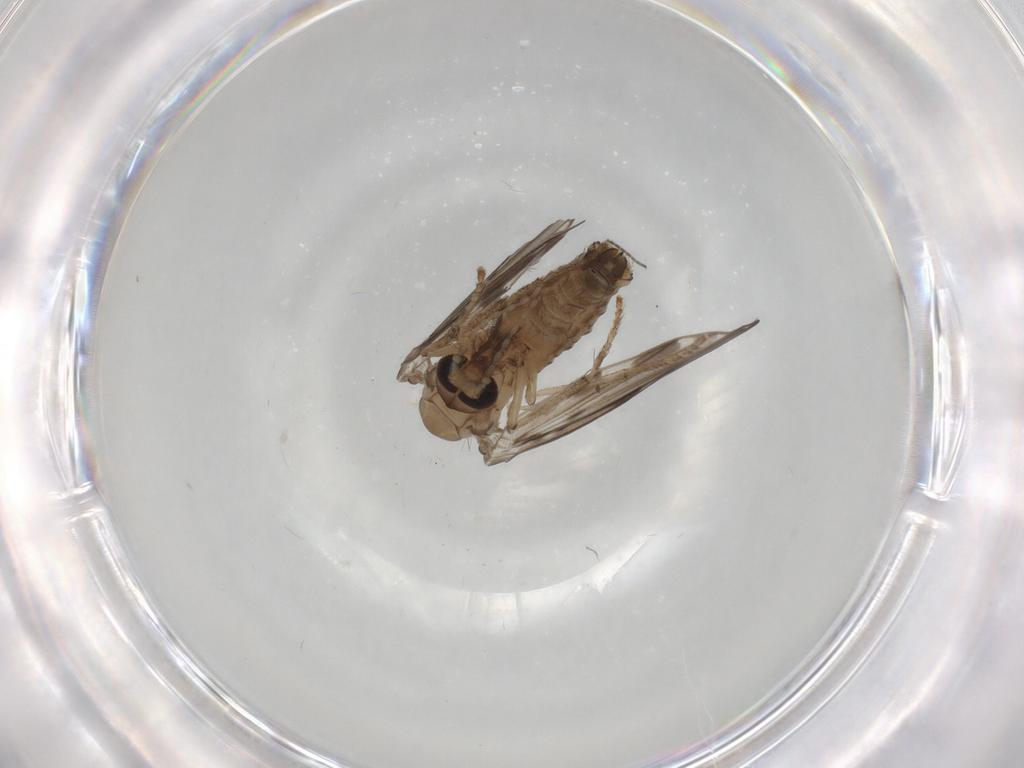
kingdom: Animalia
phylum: Arthropoda
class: Insecta
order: Diptera
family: Psychodidae
